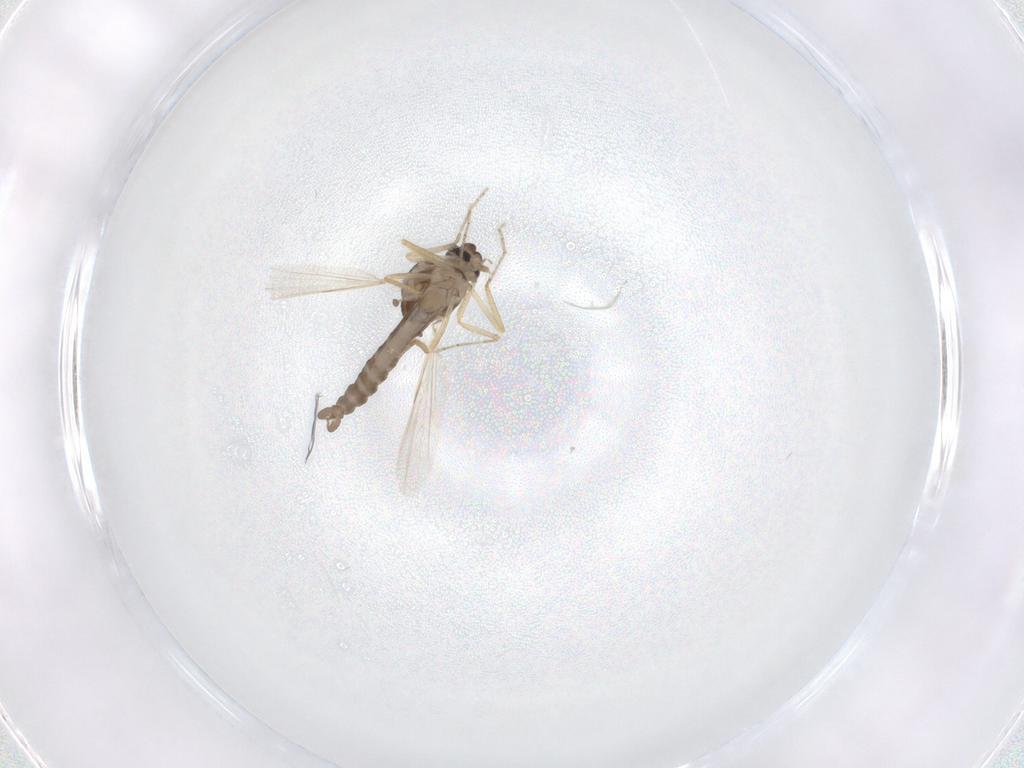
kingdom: Animalia
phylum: Arthropoda
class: Insecta
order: Diptera
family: Ceratopogonidae
